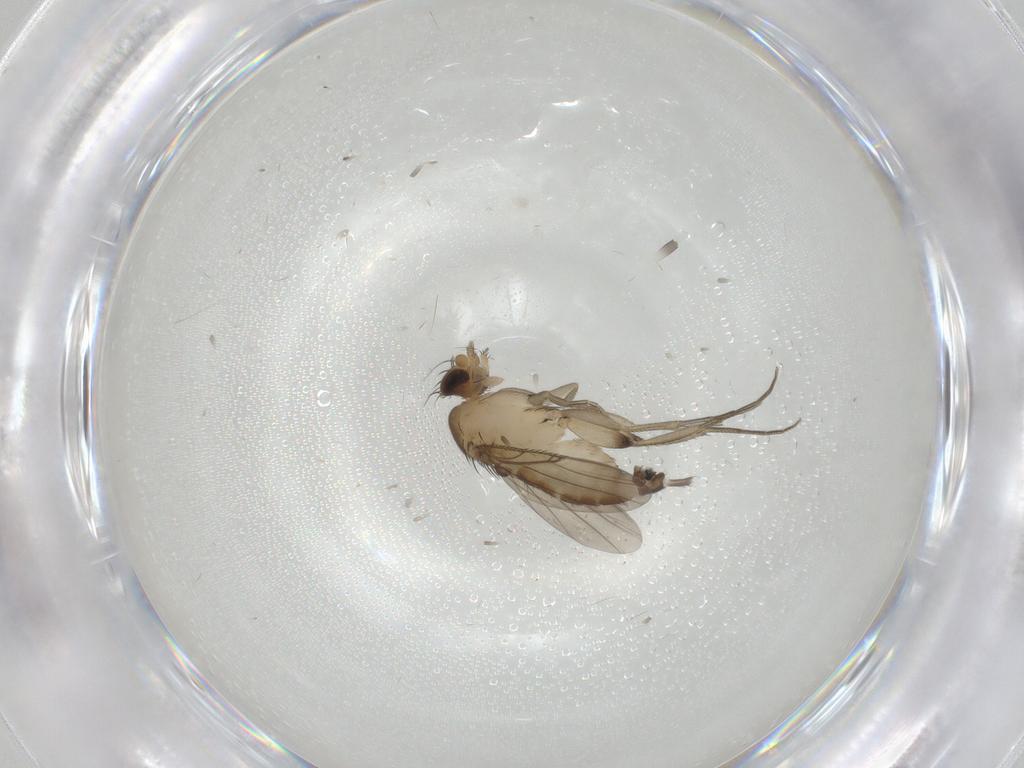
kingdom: Animalia
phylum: Arthropoda
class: Insecta
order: Diptera
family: Phoridae
